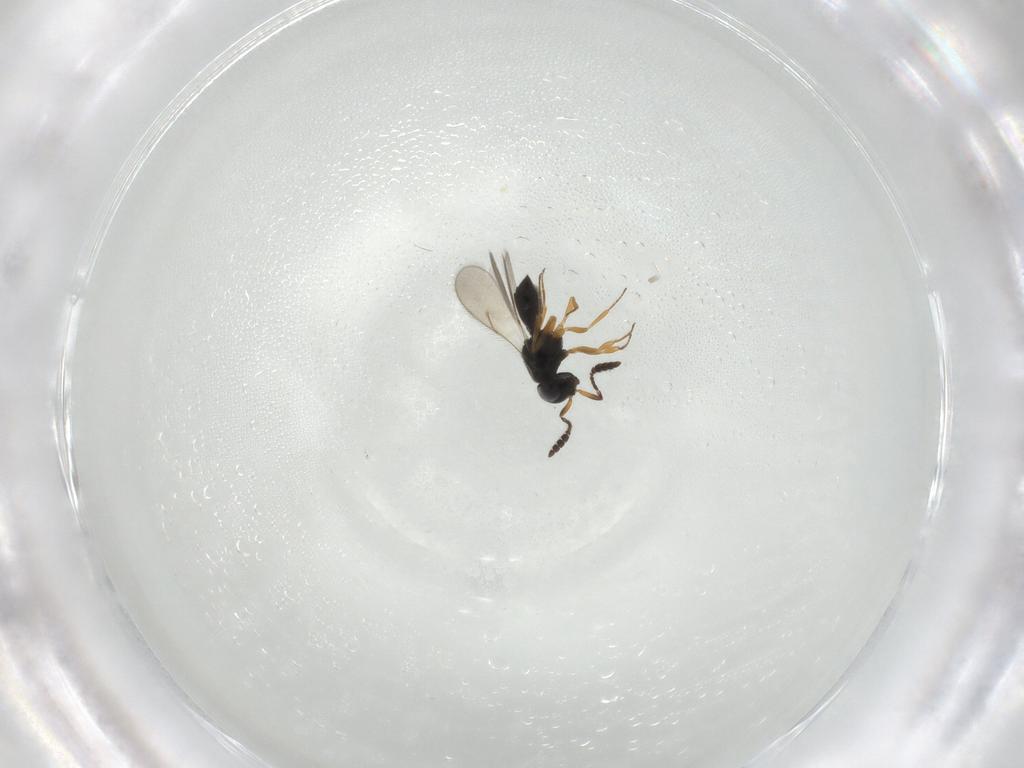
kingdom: Animalia
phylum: Arthropoda
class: Insecta
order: Hymenoptera
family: Scelionidae
